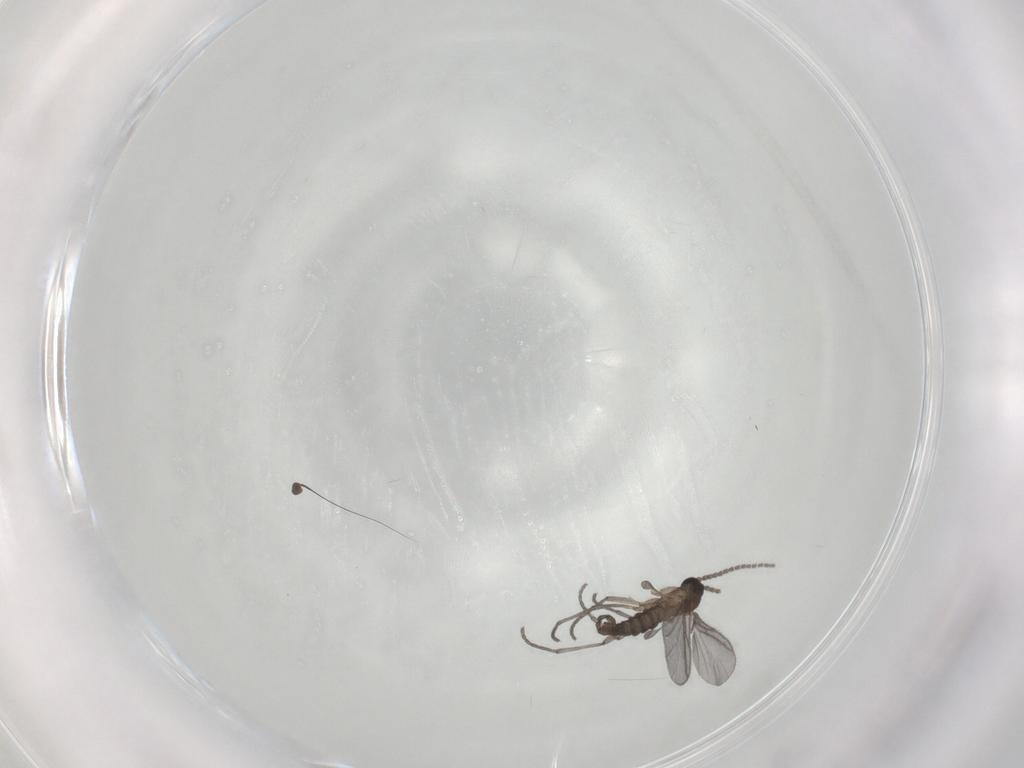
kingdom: Animalia
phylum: Arthropoda
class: Insecta
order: Diptera
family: Sciaridae
